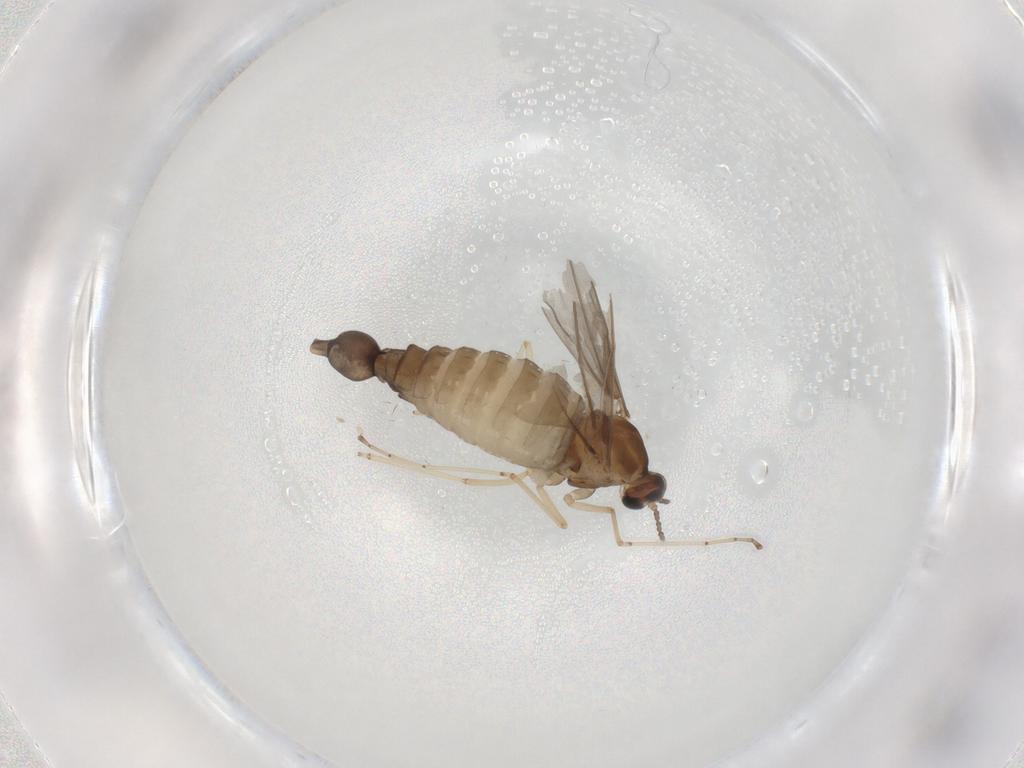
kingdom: Animalia
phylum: Arthropoda
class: Insecta
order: Diptera
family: Cecidomyiidae
